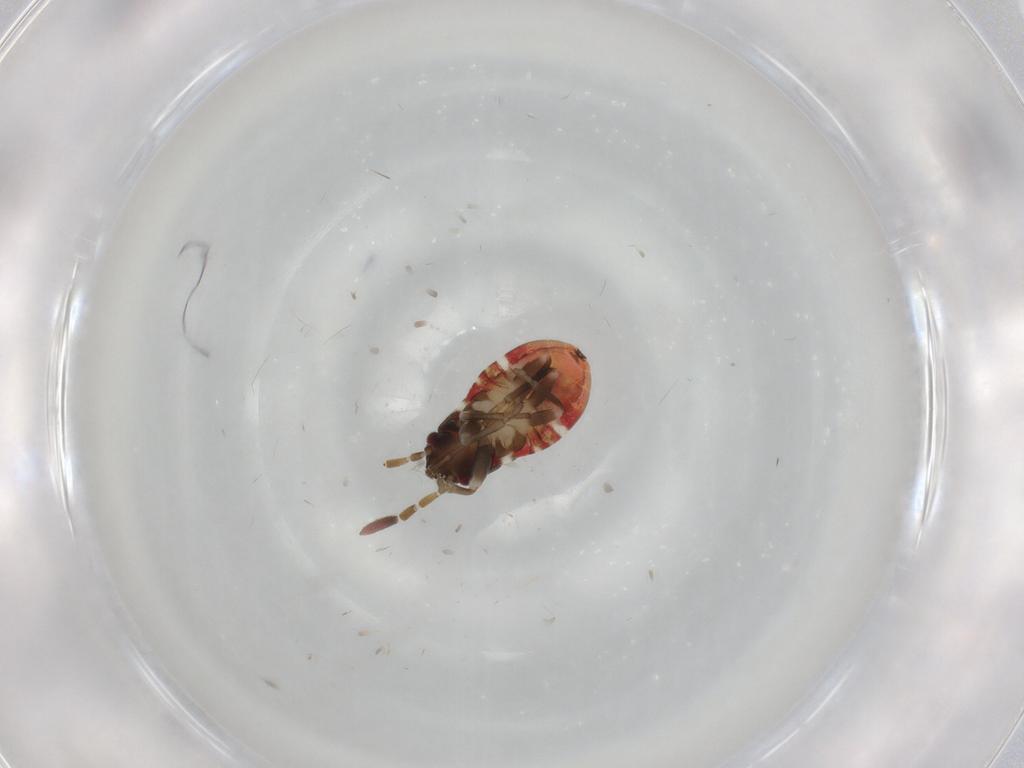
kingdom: Animalia
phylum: Arthropoda
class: Insecta
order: Hemiptera
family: Rhyparochromidae
